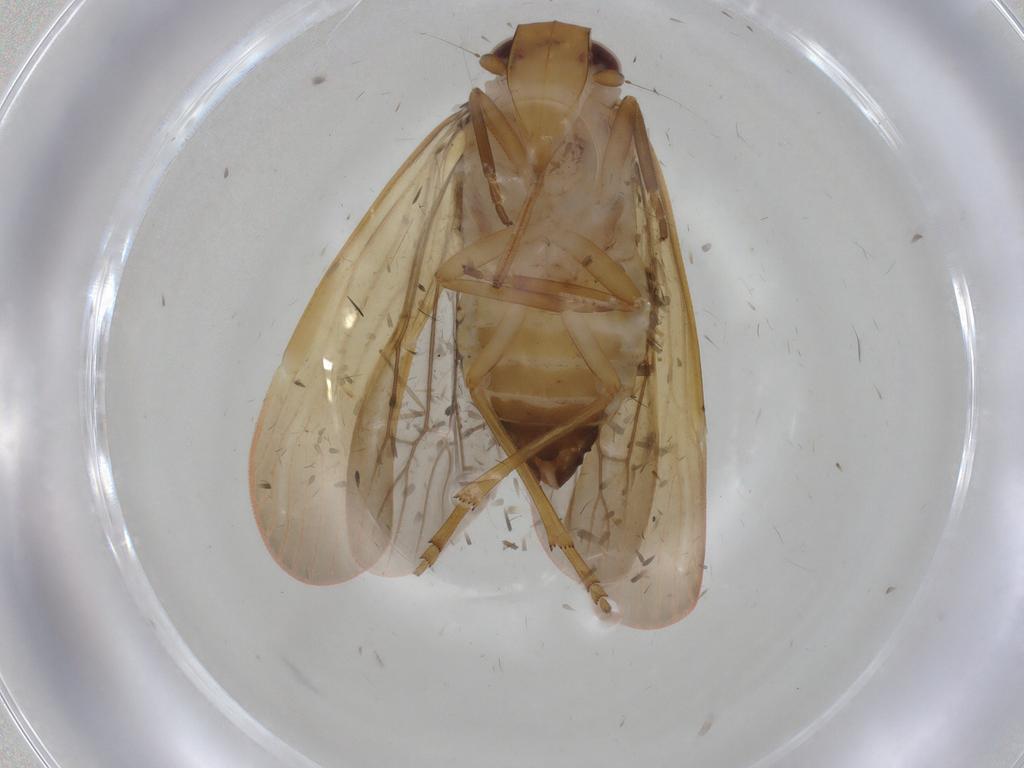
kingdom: Animalia
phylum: Arthropoda
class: Insecta
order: Hemiptera
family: Achilidae
